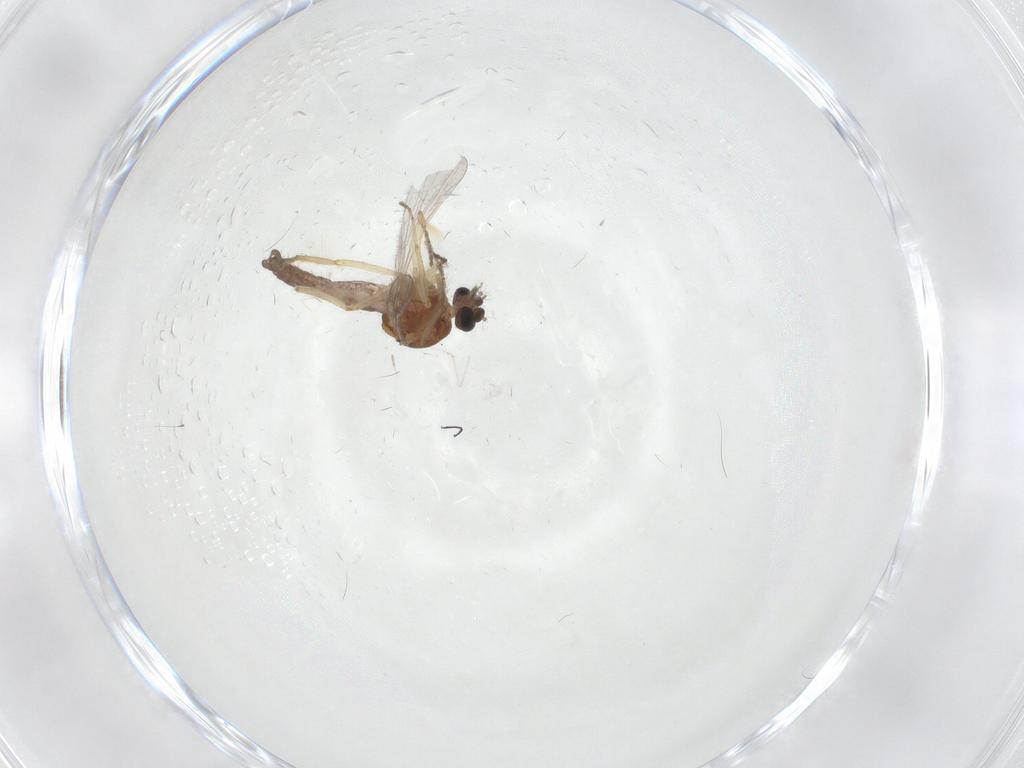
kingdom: Animalia
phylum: Arthropoda
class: Insecta
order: Diptera
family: Ceratopogonidae
